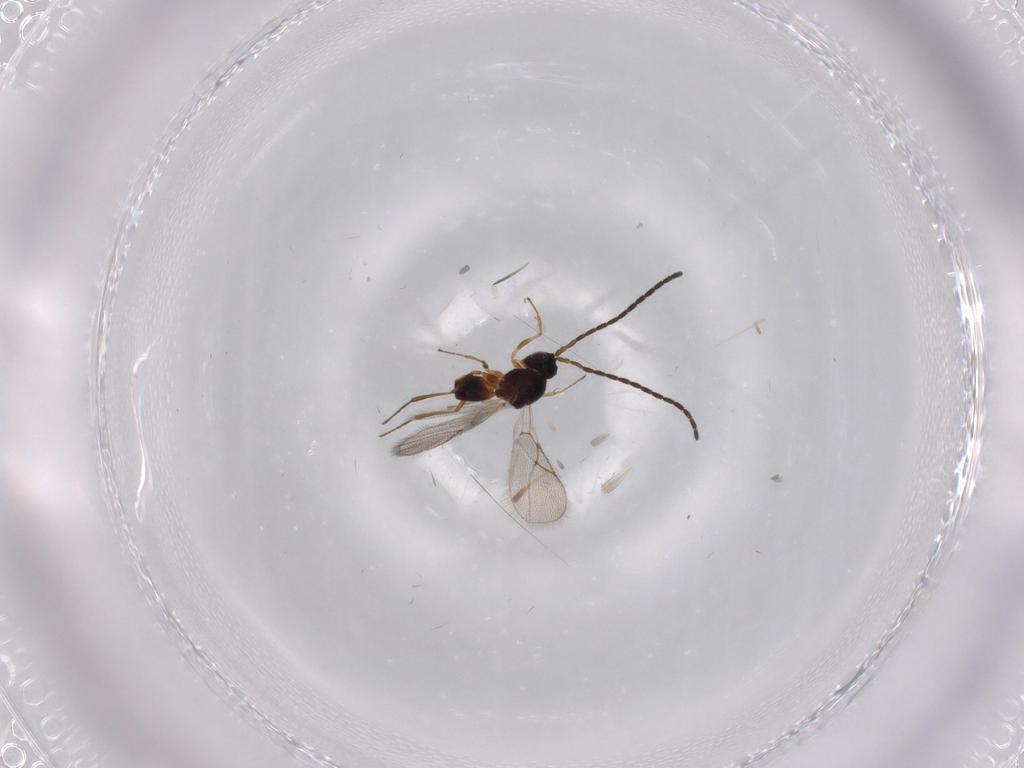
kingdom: Animalia
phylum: Arthropoda
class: Insecta
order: Hymenoptera
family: Figitidae
